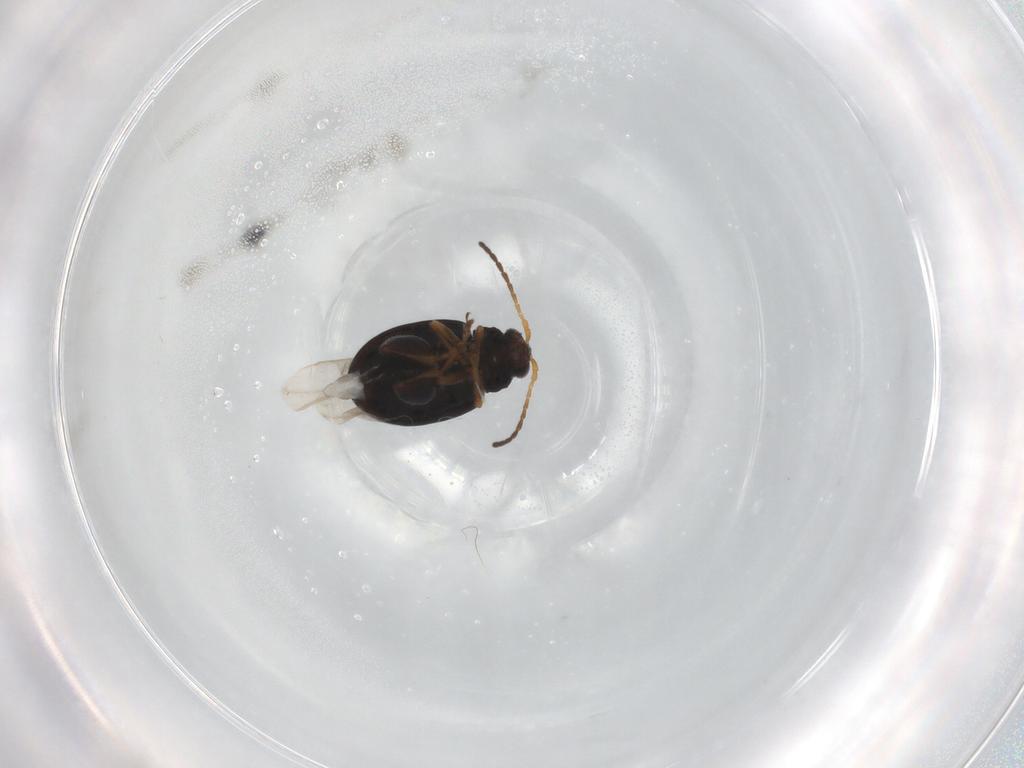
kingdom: Animalia
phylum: Arthropoda
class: Insecta
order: Coleoptera
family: Chrysomelidae
